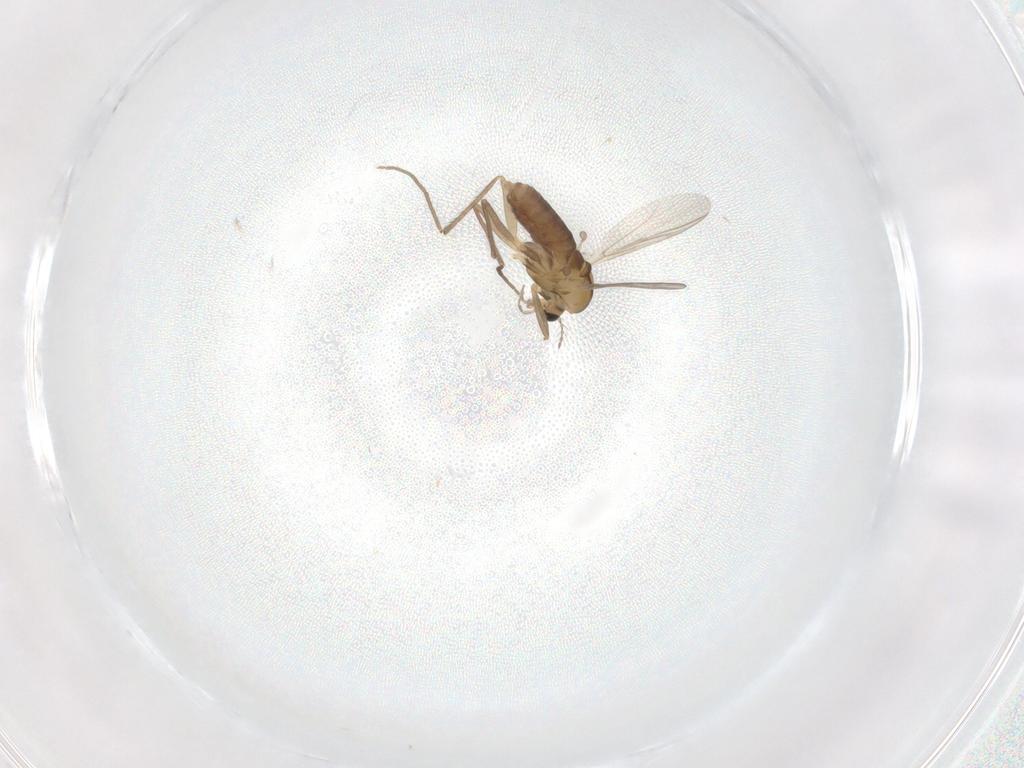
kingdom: Animalia
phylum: Arthropoda
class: Insecta
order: Diptera
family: Chironomidae
